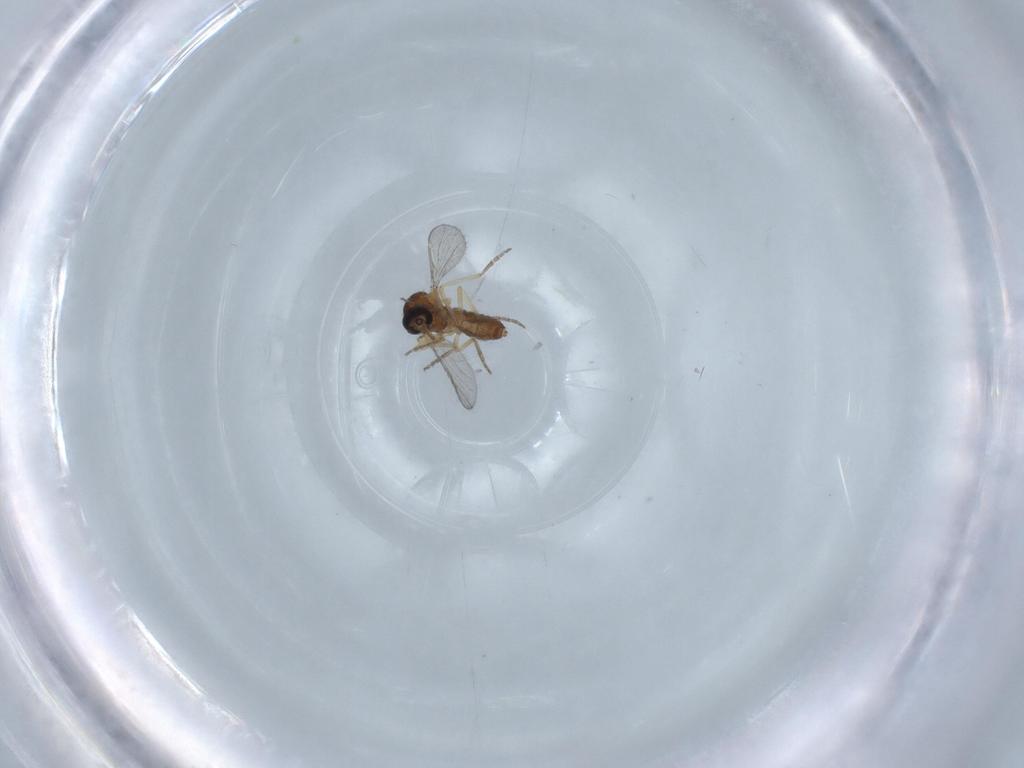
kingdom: Animalia
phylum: Arthropoda
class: Insecta
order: Diptera
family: Ceratopogonidae
